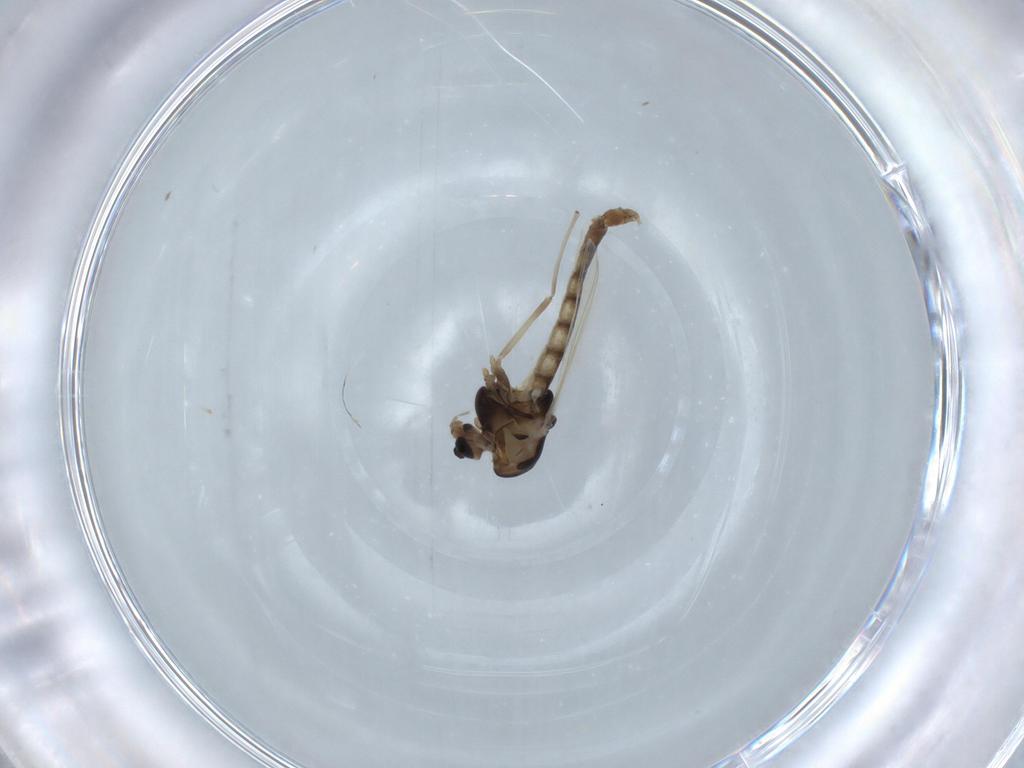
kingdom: Animalia
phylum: Arthropoda
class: Insecta
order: Diptera
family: Chironomidae
